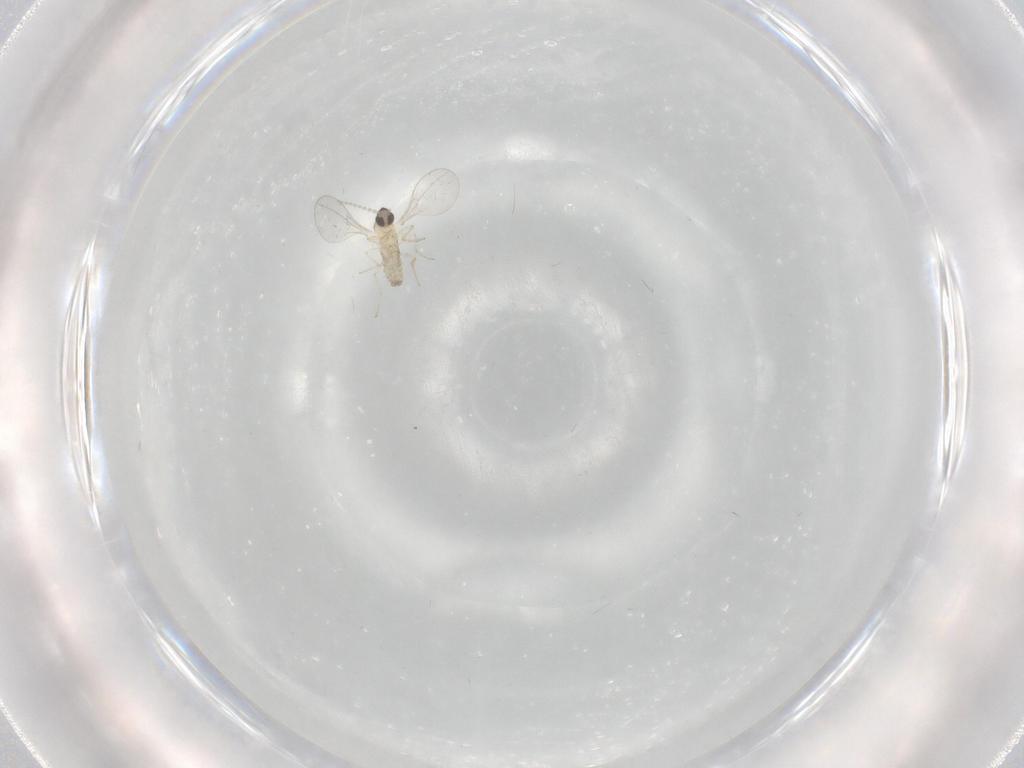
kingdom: Animalia
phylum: Arthropoda
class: Insecta
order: Diptera
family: Cecidomyiidae
